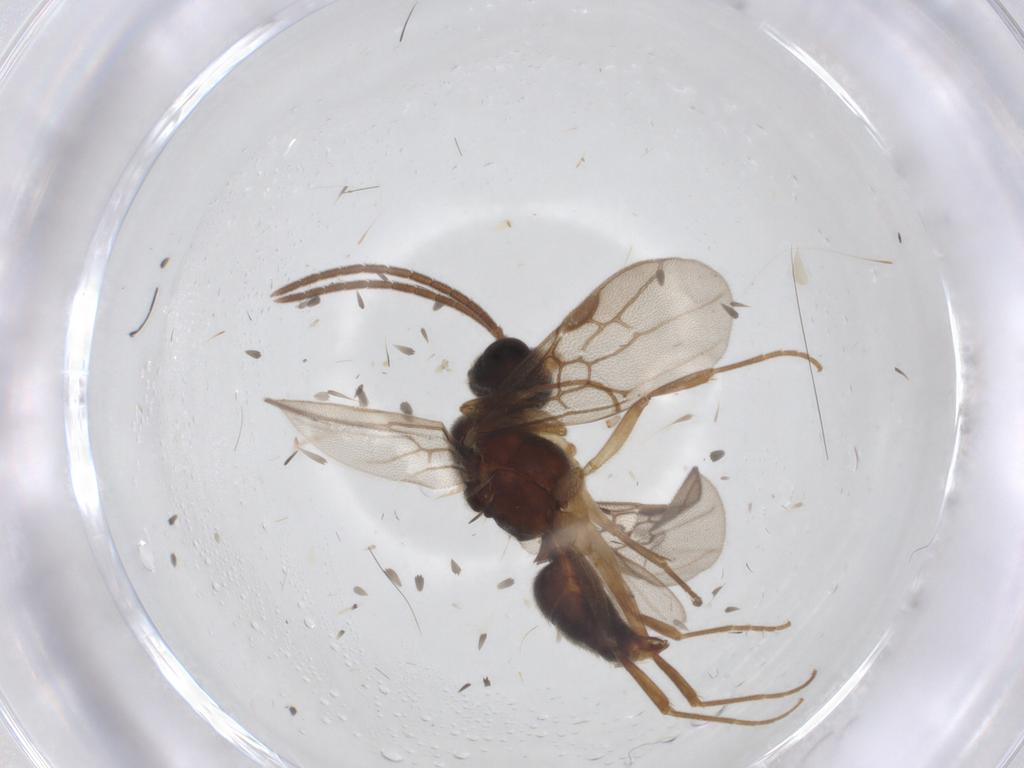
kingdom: Animalia
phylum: Arthropoda
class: Insecta
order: Hymenoptera
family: Formicidae
